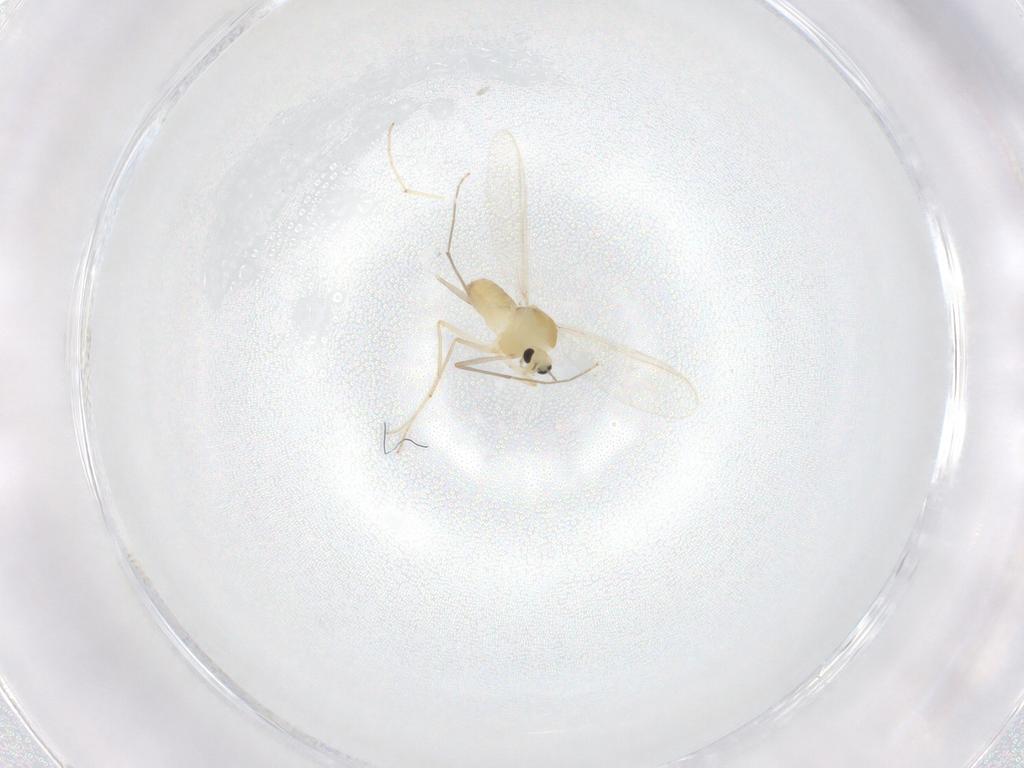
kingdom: Animalia
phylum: Arthropoda
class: Insecta
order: Diptera
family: Chironomidae
